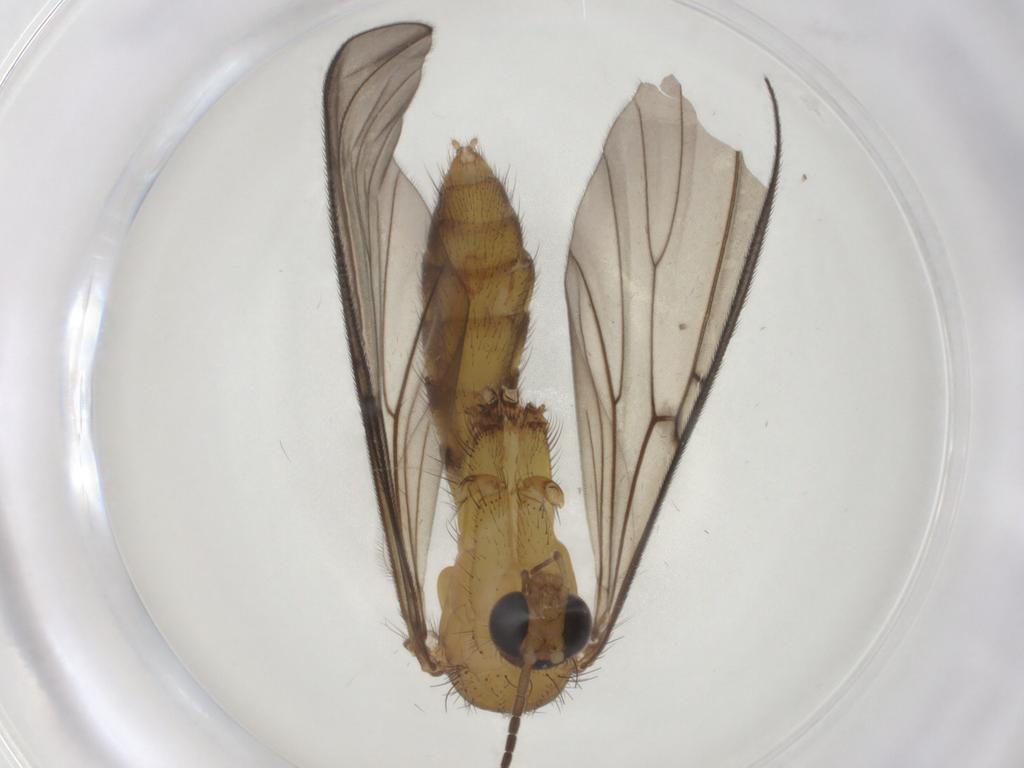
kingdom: Animalia
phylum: Arthropoda
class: Insecta
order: Diptera
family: Mycetophilidae
